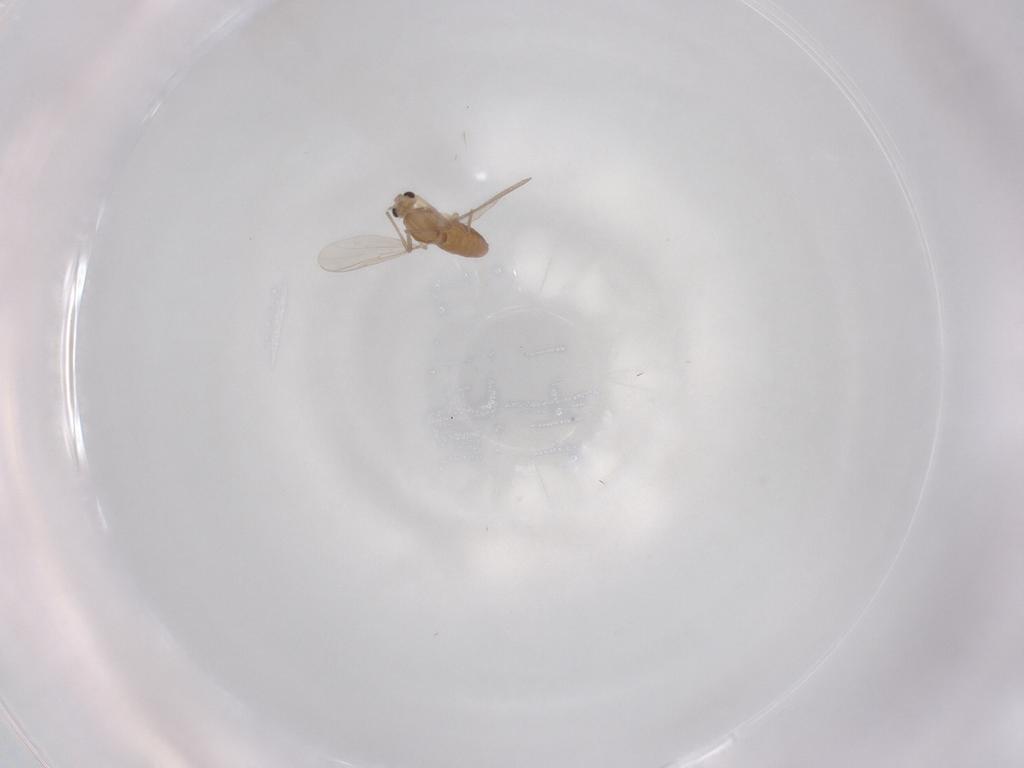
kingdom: Animalia
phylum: Arthropoda
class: Insecta
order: Diptera
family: Chironomidae
